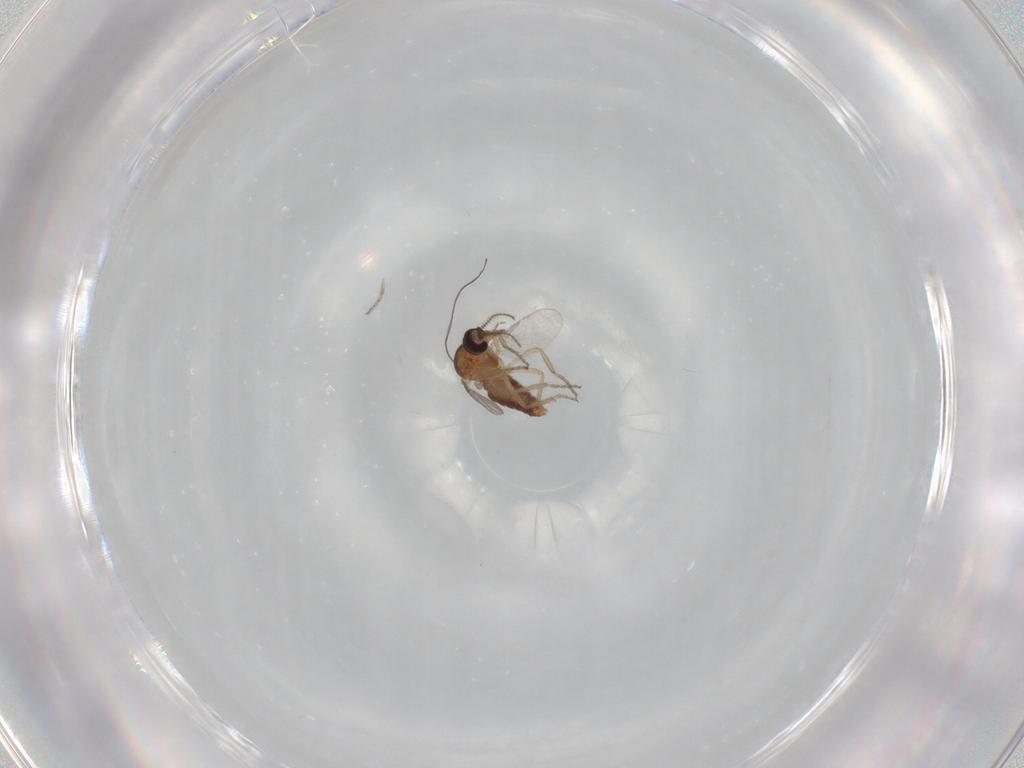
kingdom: Animalia
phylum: Arthropoda
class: Insecta
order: Diptera
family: Ceratopogonidae
